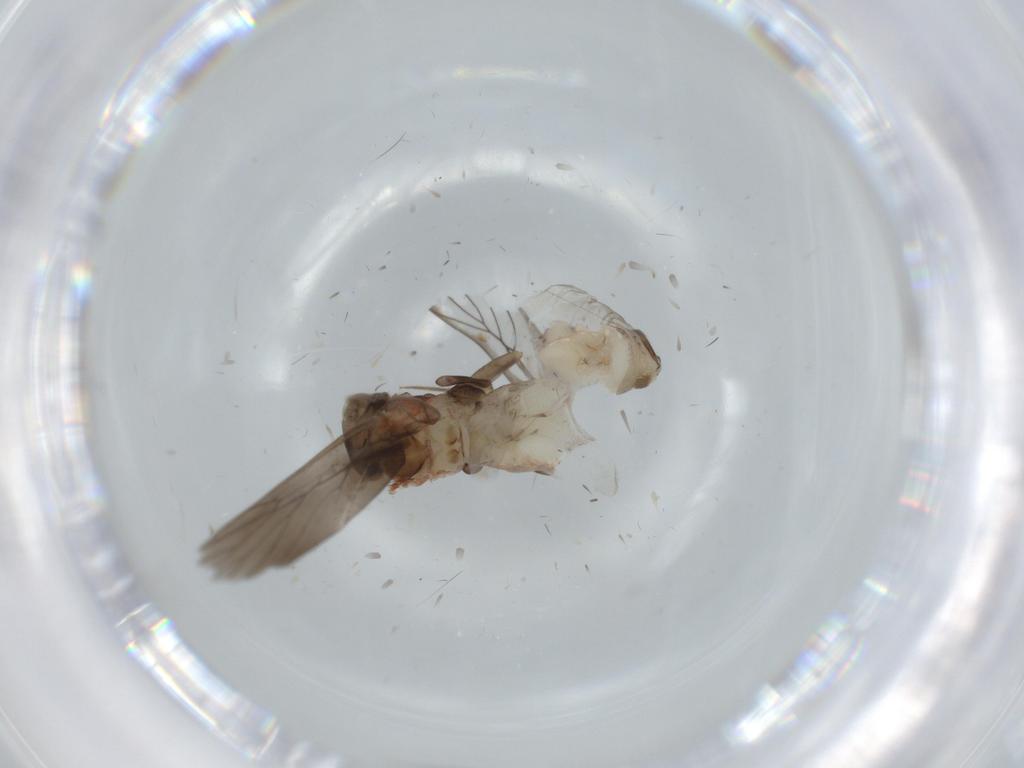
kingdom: Animalia
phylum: Arthropoda
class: Insecta
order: Psocodea
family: Lepidopsocidae
